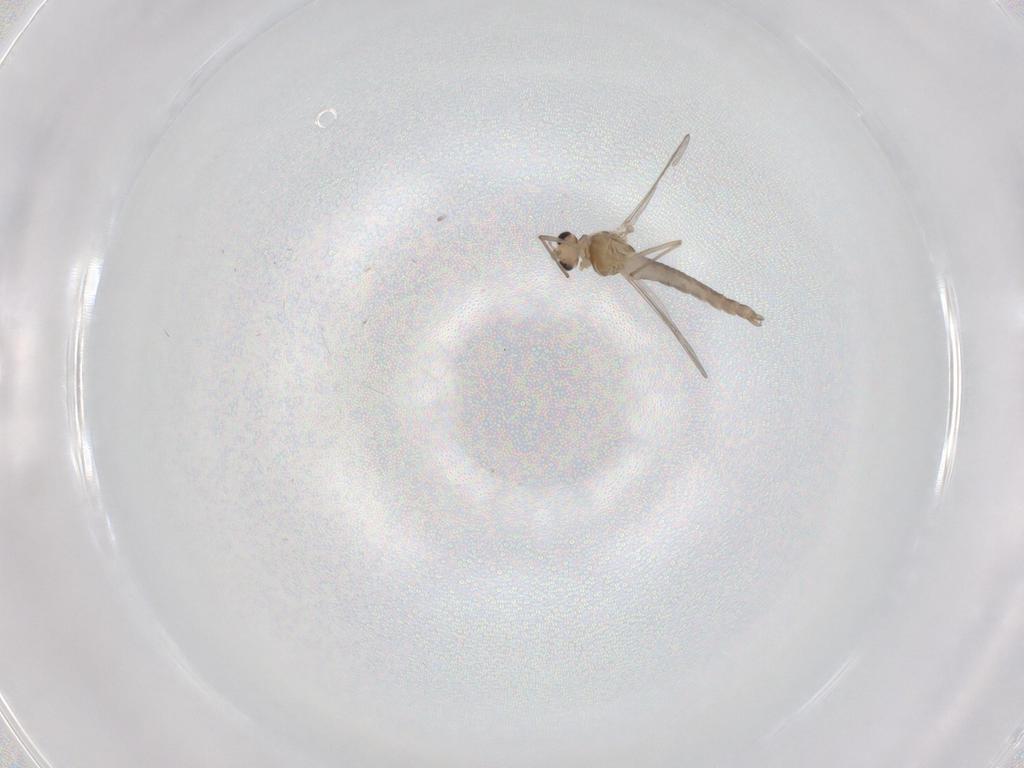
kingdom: Animalia
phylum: Arthropoda
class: Insecta
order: Diptera
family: Chironomidae
